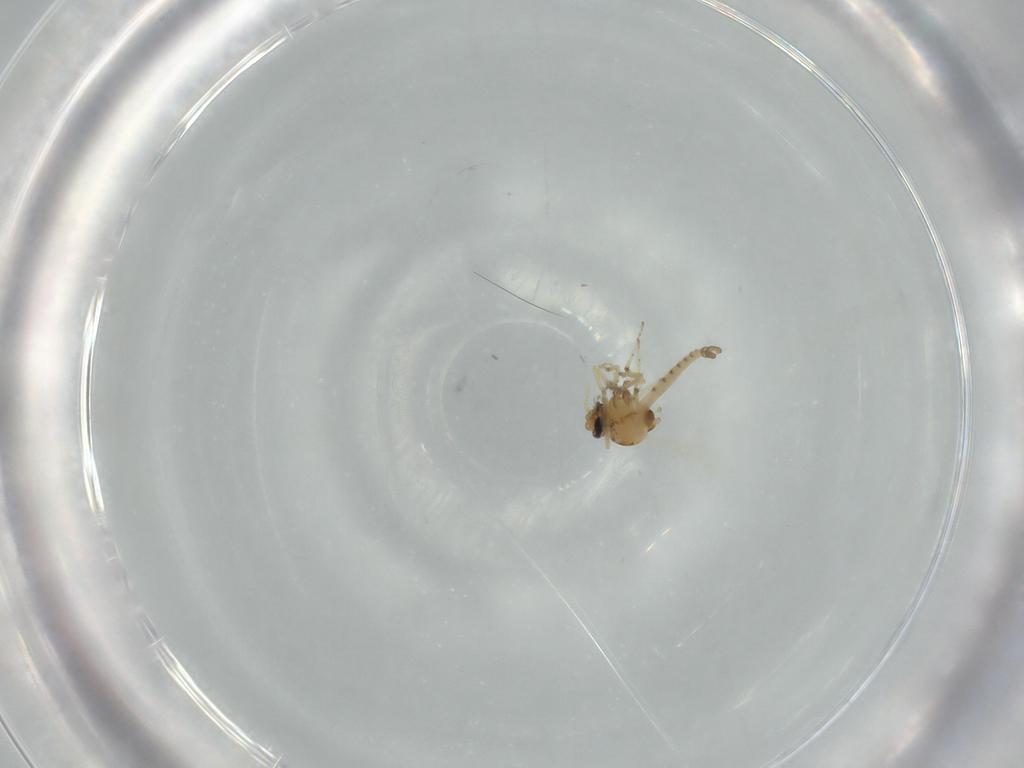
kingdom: Animalia
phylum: Arthropoda
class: Insecta
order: Diptera
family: Ceratopogonidae
